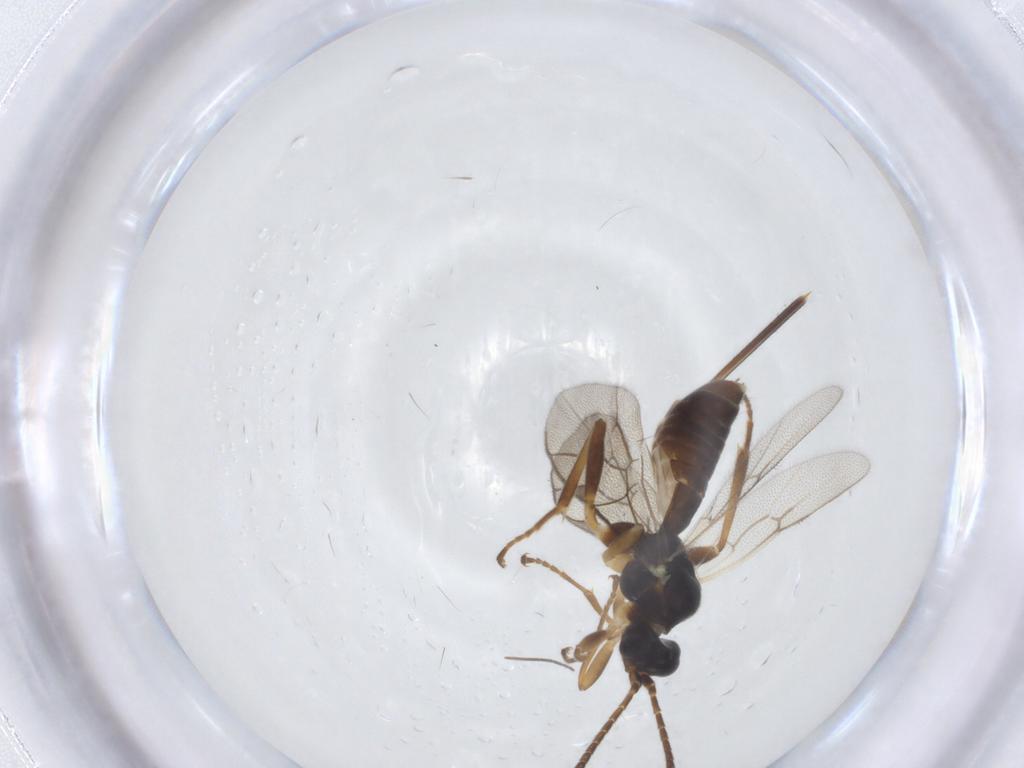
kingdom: Animalia
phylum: Arthropoda
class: Insecta
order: Hymenoptera
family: Ichneumonidae
